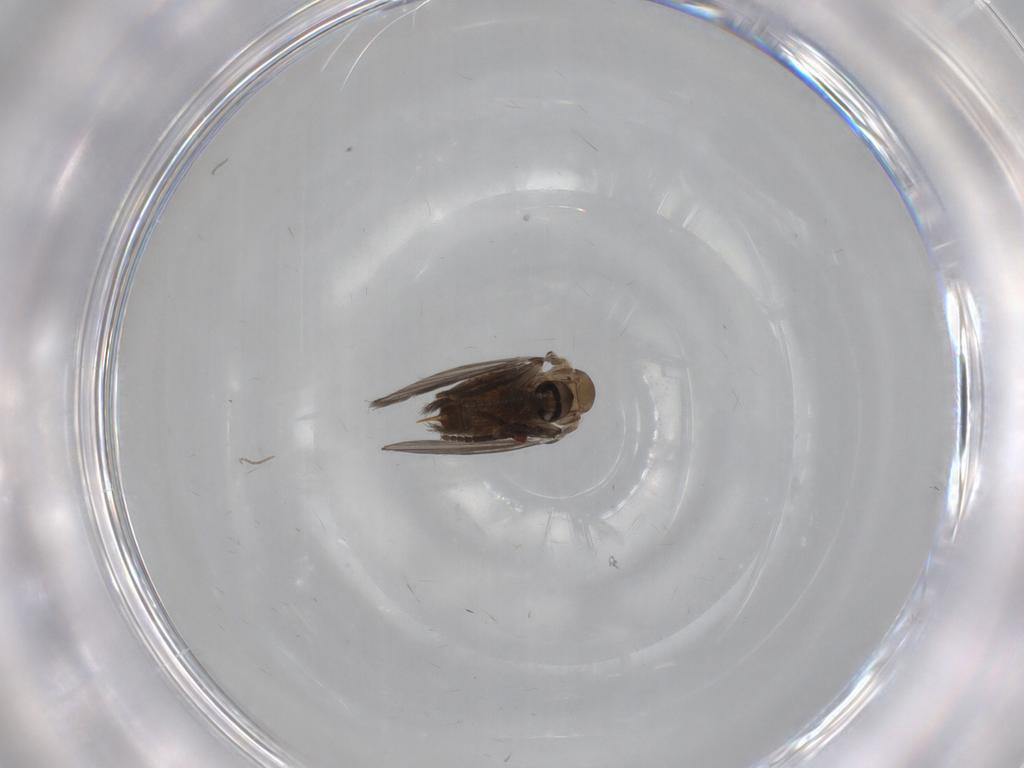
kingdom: Animalia
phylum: Arthropoda
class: Insecta
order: Diptera
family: Psychodidae
